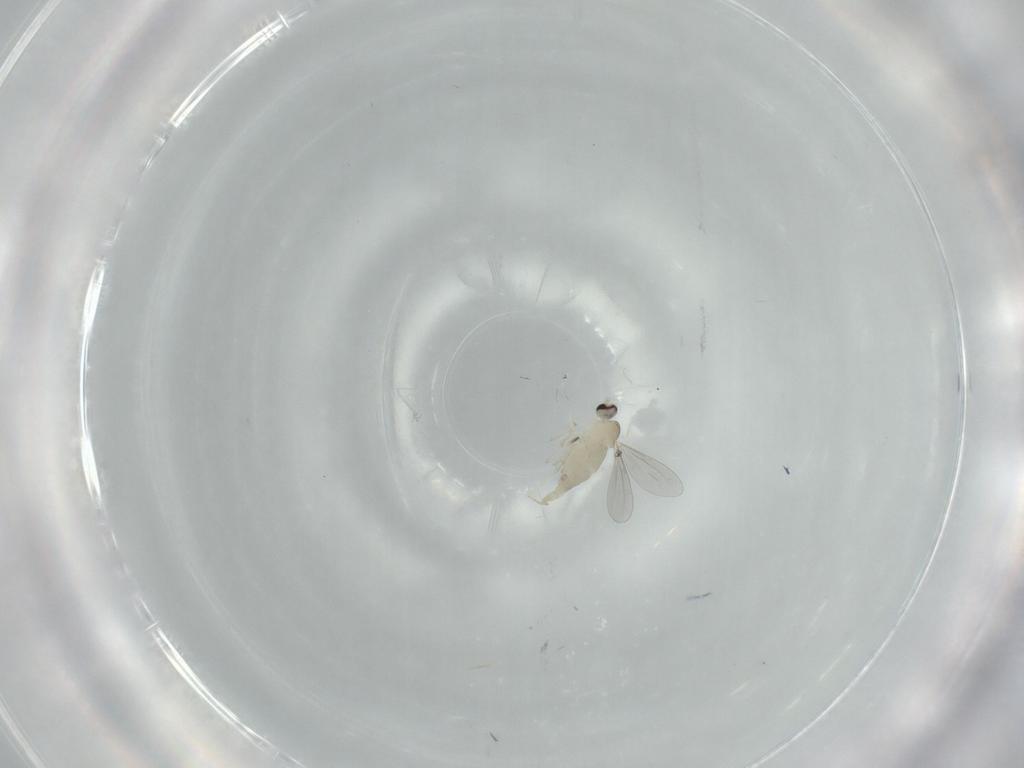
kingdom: Animalia
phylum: Arthropoda
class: Insecta
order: Diptera
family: Cecidomyiidae
